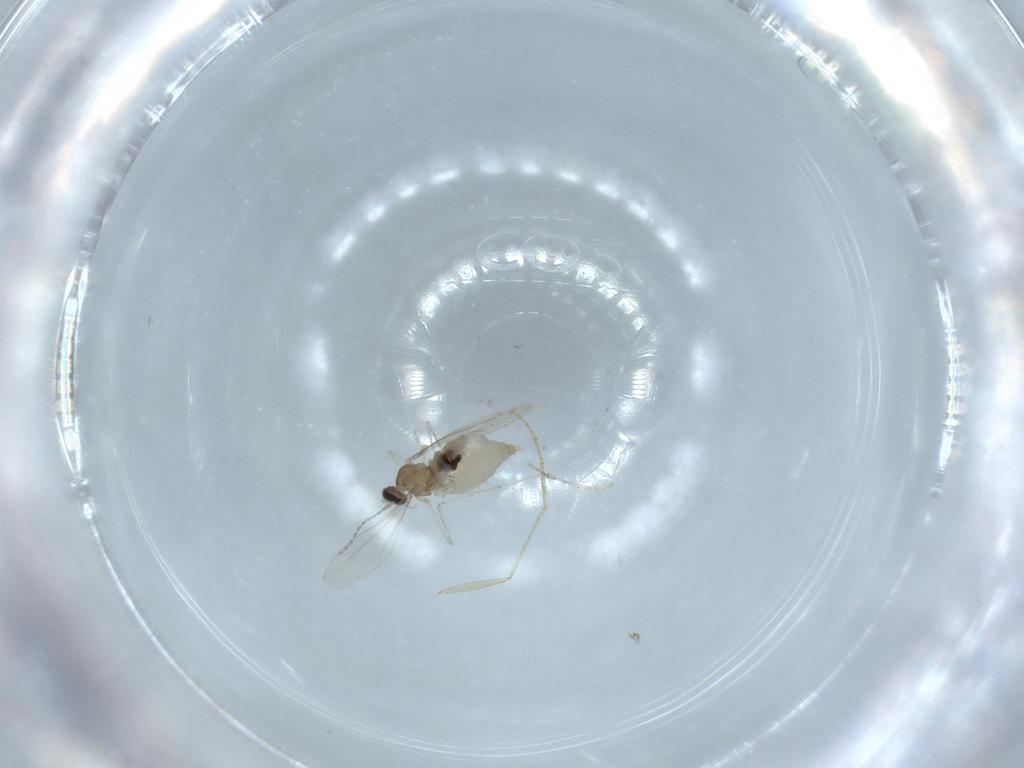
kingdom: Animalia
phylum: Arthropoda
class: Insecta
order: Diptera
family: Cecidomyiidae
